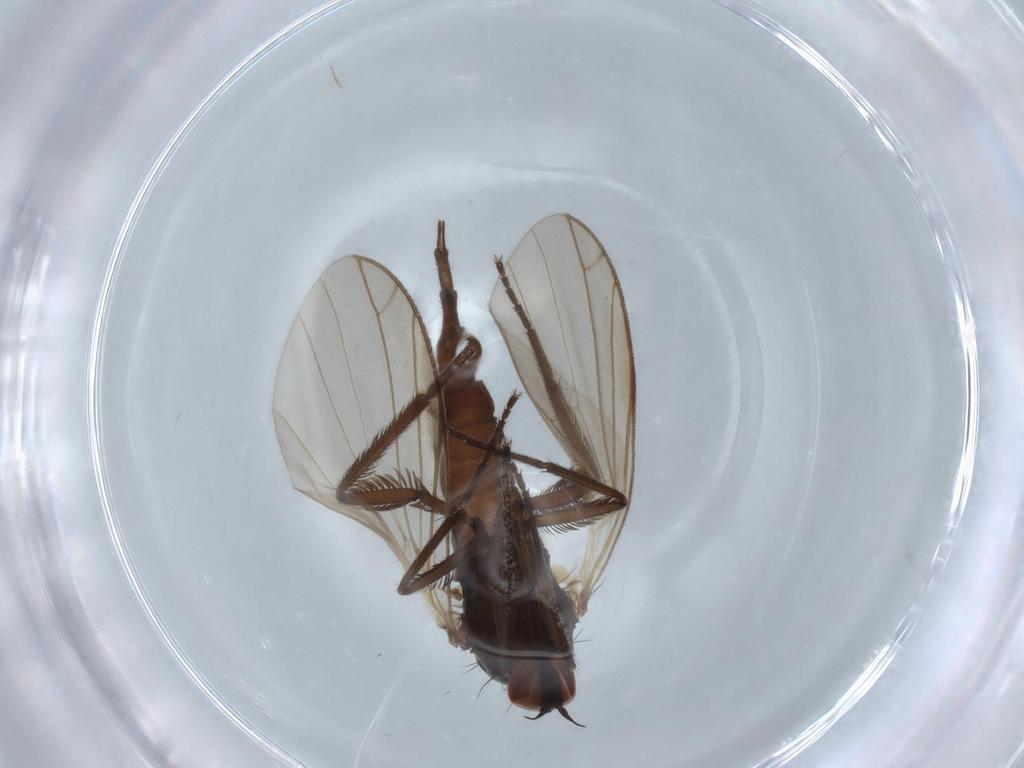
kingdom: Animalia
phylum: Arthropoda
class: Insecta
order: Diptera
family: Empididae
